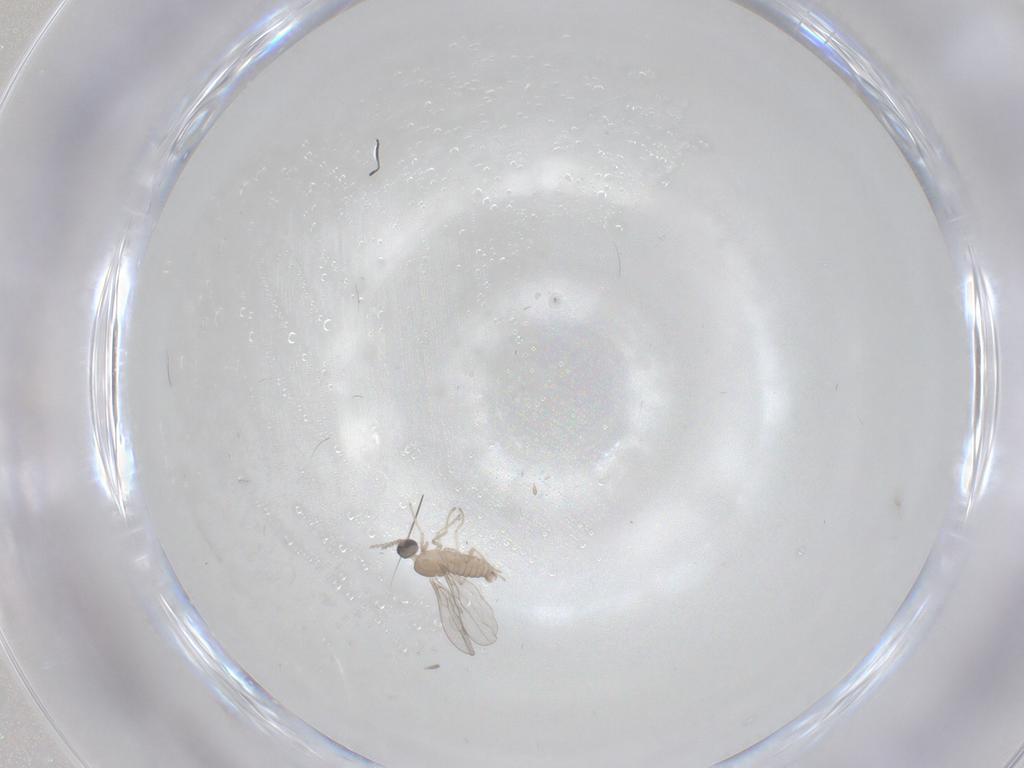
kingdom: Animalia
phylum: Arthropoda
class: Insecta
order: Diptera
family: Cecidomyiidae
